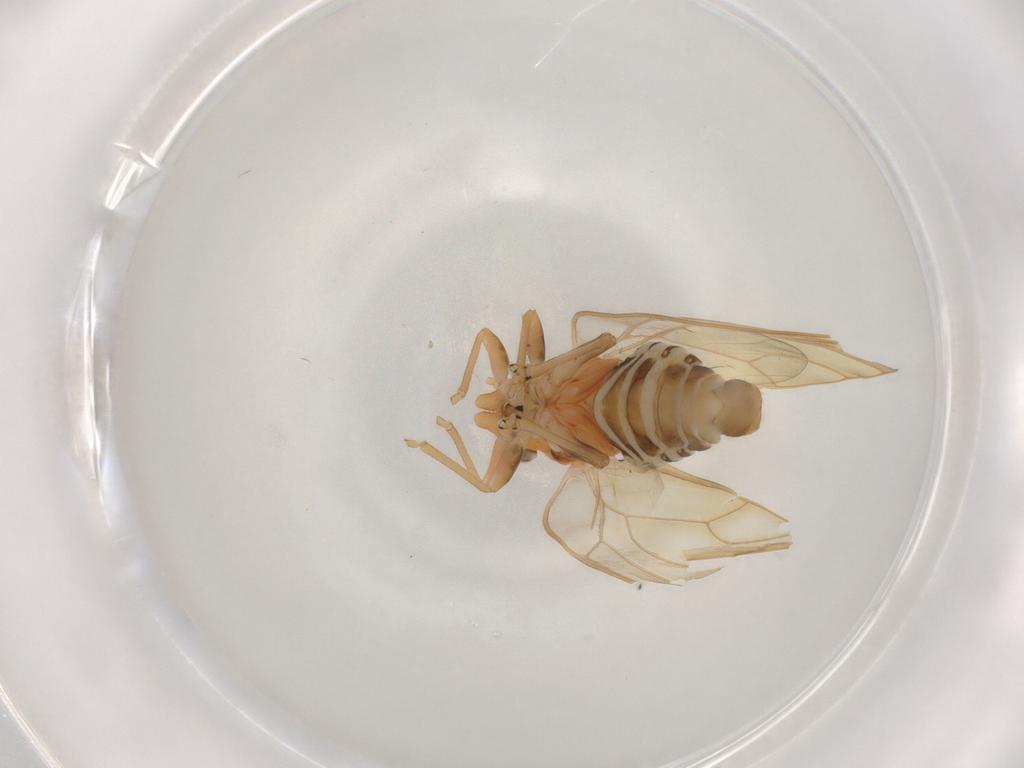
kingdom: Animalia
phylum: Arthropoda
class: Insecta
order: Hemiptera
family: Psyllidae
